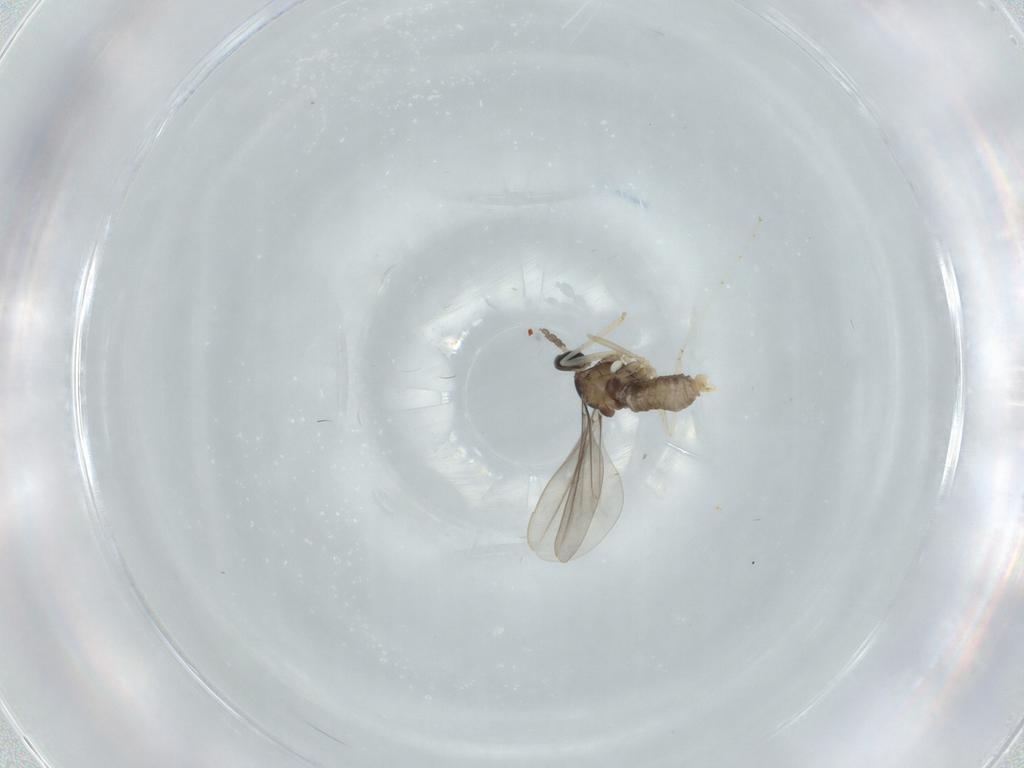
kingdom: Animalia
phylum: Arthropoda
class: Insecta
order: Diptera
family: Cecidomyiidae
